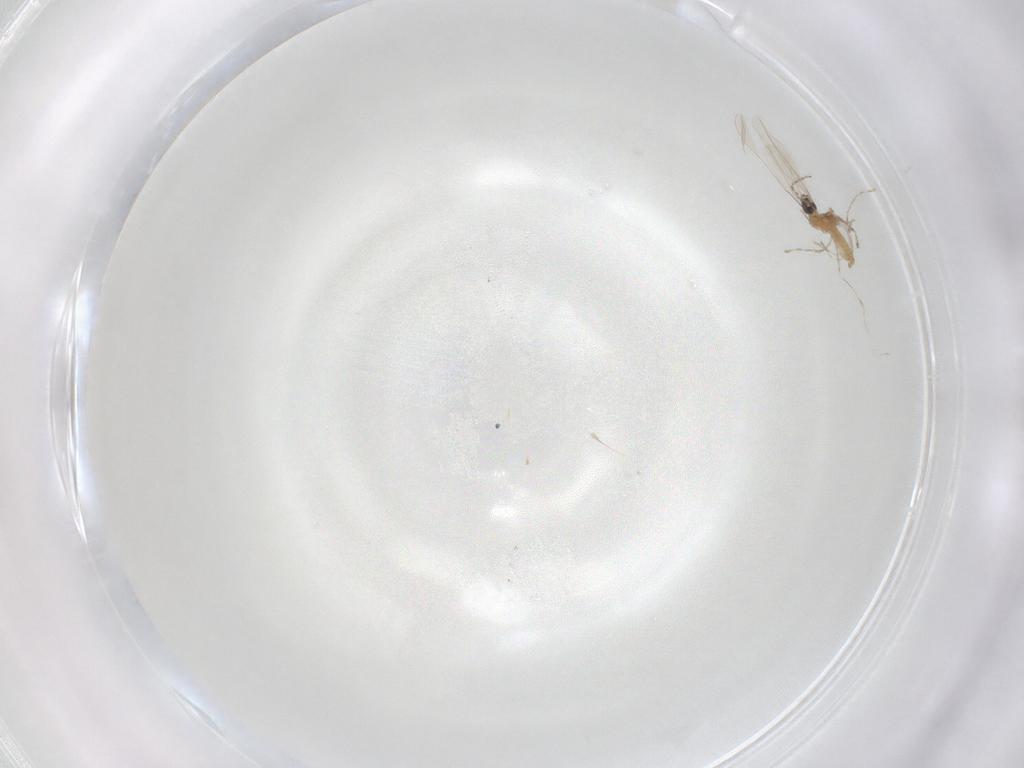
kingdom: Animalia
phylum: Arthropoda
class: Insecta
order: Diptera
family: Cecidomyiidae
